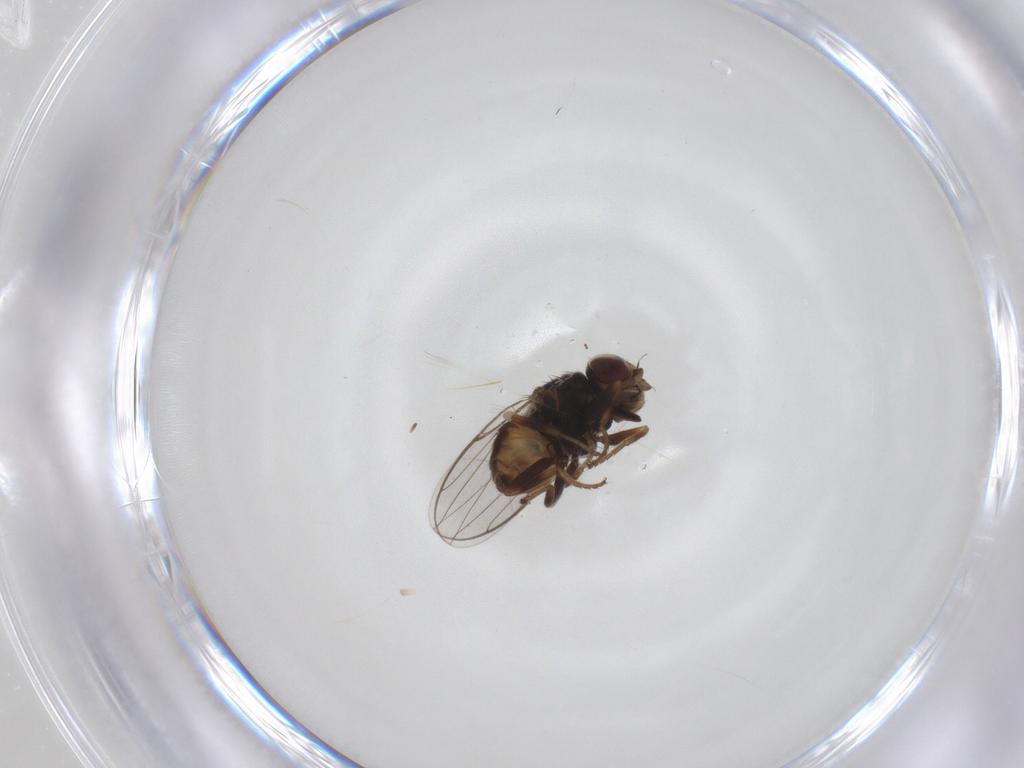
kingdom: Animalia
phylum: Arthropoda
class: Insecta
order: Diptera
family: Chloropidae
